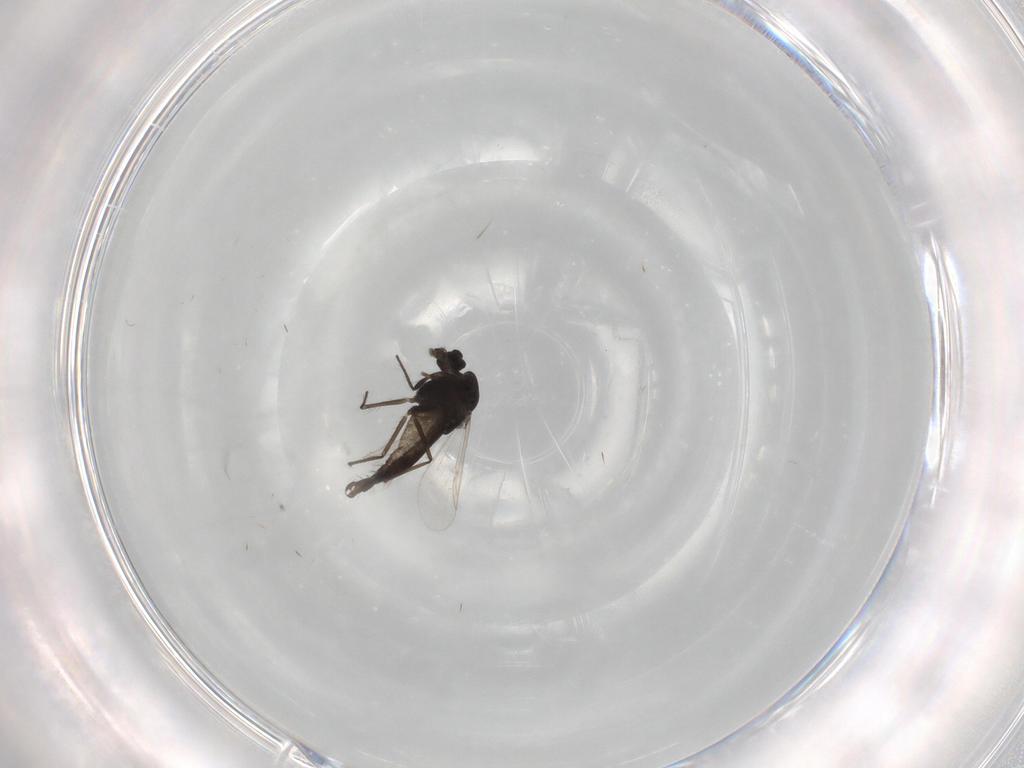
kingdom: Animalia
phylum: Arthropoda
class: Insecta
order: Diptera
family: Chironomidae
